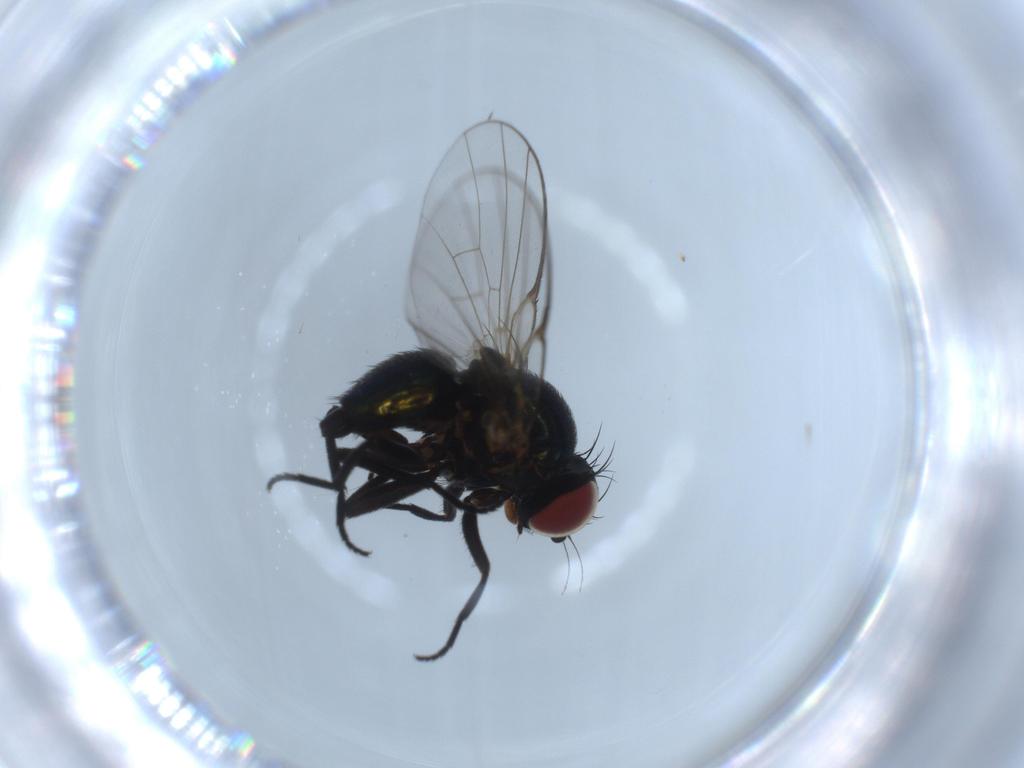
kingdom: Animalia
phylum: Arthropoda
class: Insecta
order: Diptera
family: Agromyzidae
